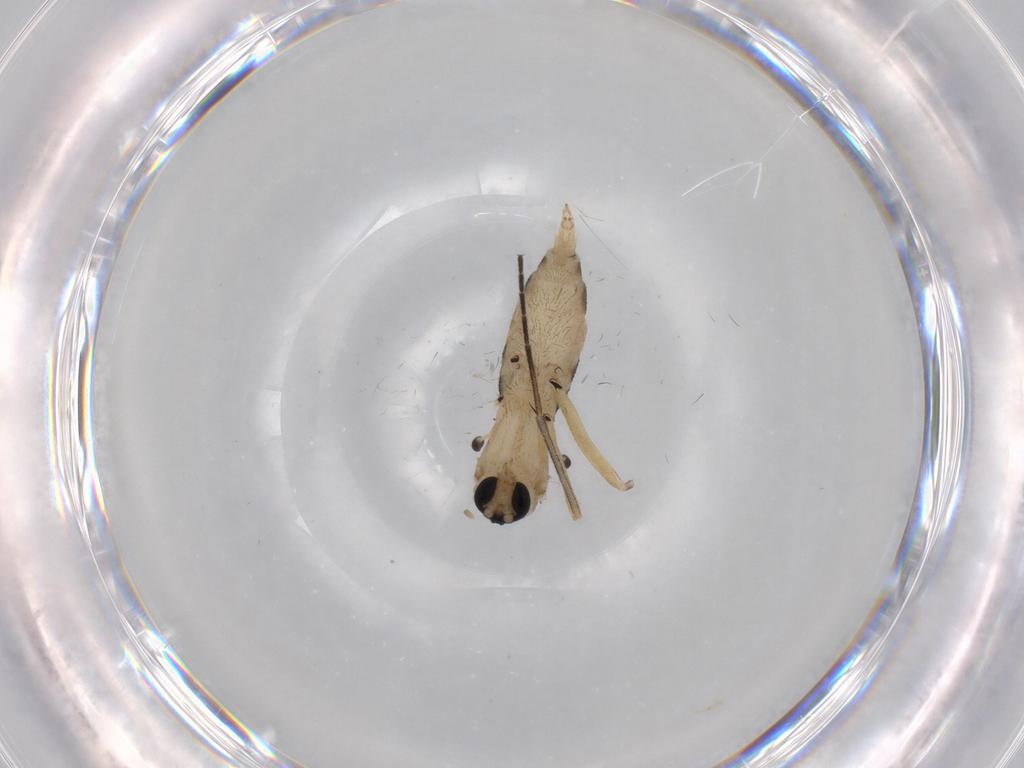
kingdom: Animalia
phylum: Arthropoda
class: Insecta
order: Diptera
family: Sciaridae
